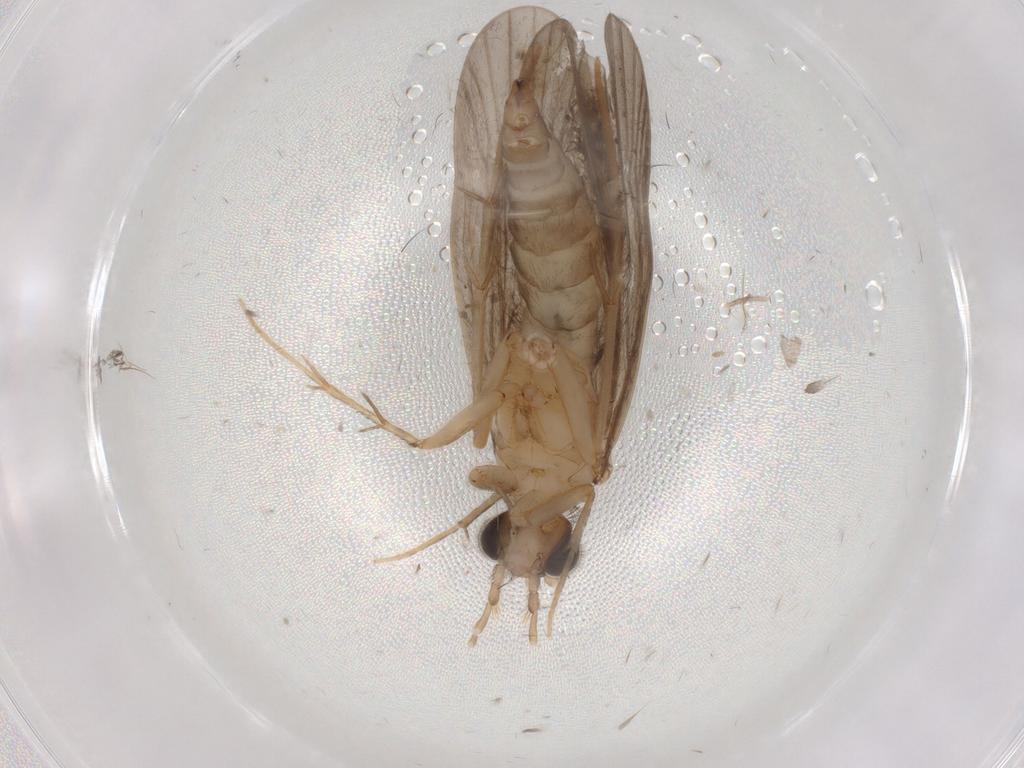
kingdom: Animalia
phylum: Arthropoda
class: Insecta
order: Trichoptera
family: Philopotamidae
